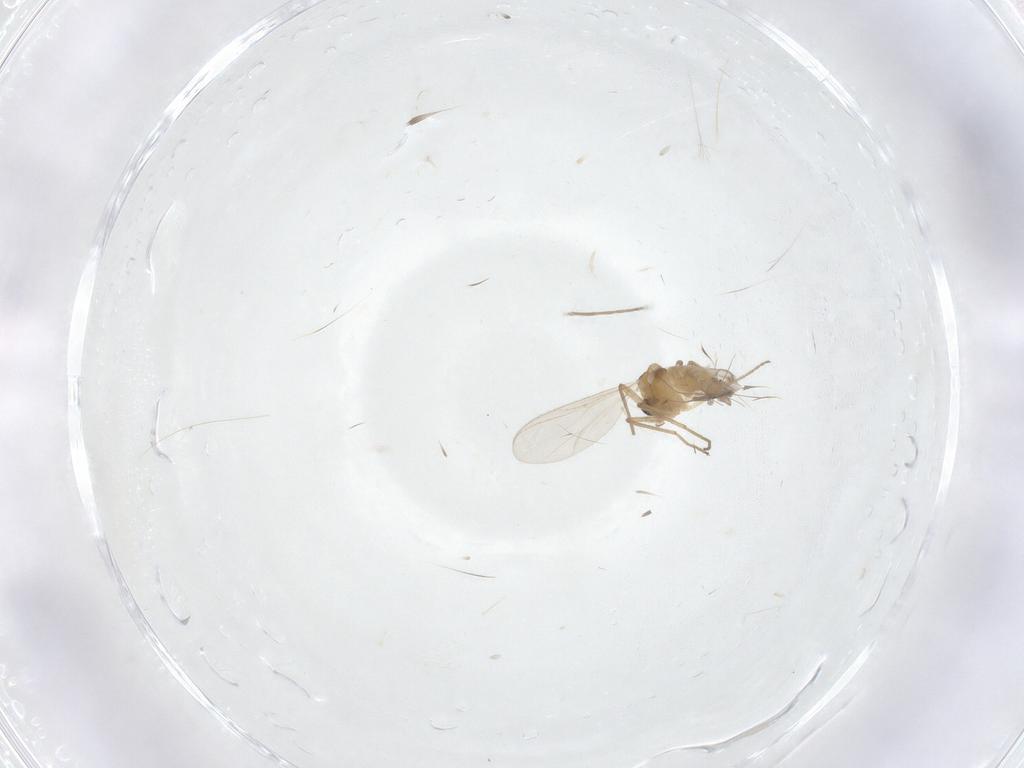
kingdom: Animalia
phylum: Arthropoda
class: Insecta
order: Diptera
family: Chironomidae
